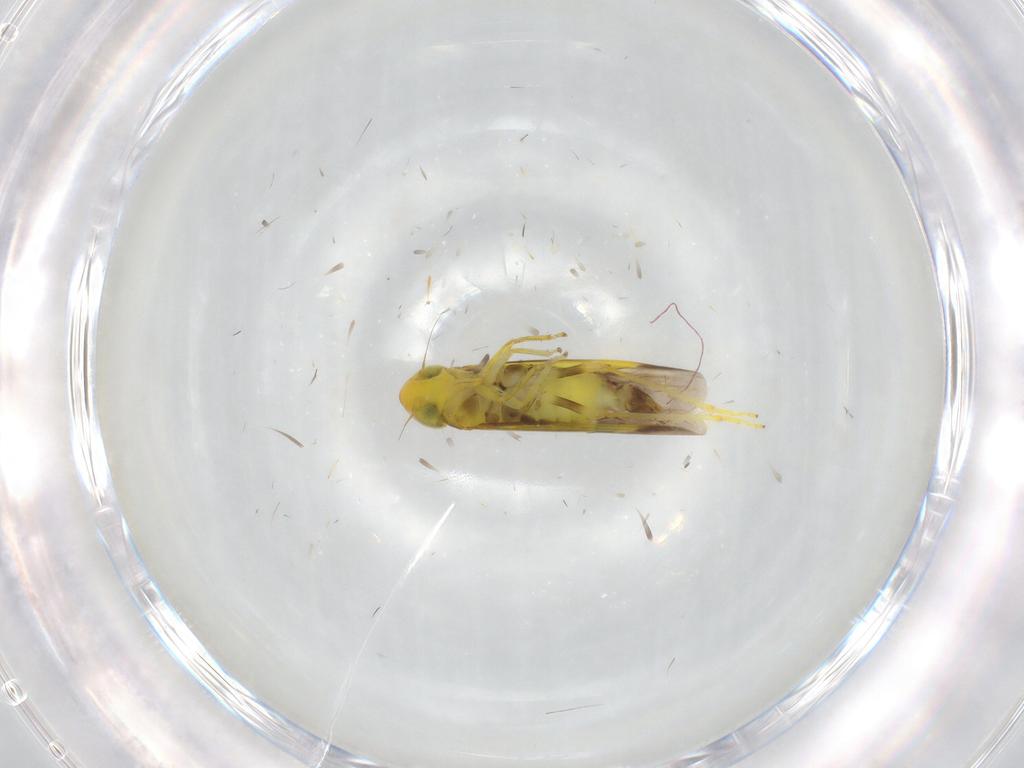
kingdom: Animalia
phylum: Arthropoda
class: Insecta
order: Hemiptera
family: Cicadellidae
